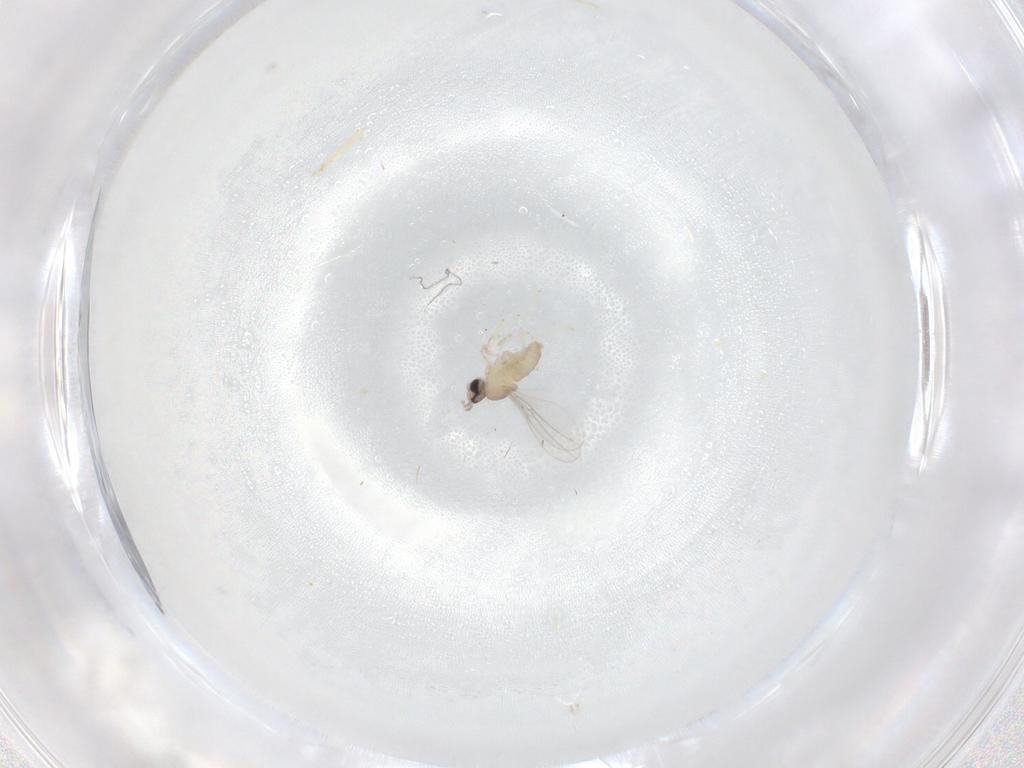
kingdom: Animalia
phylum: Arthropoda
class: Insecta
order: Diptera
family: Cecidomyiidae
